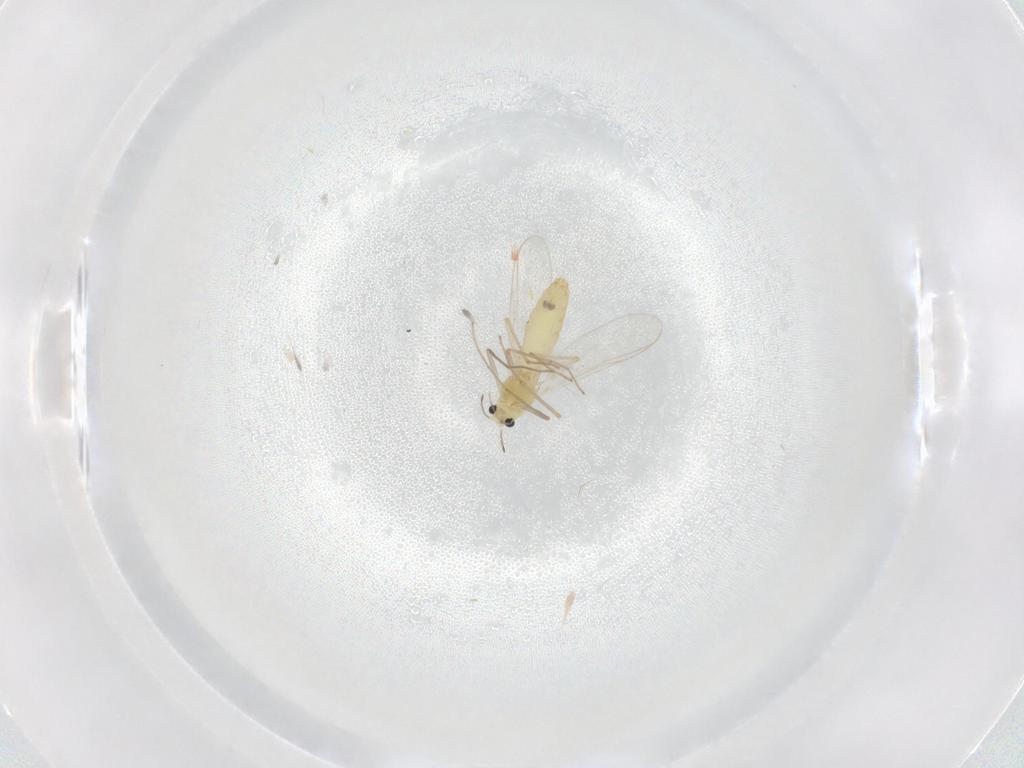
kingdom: Animalia
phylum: Arthropoda
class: Insecta
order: Diptera
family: Chironomidae
